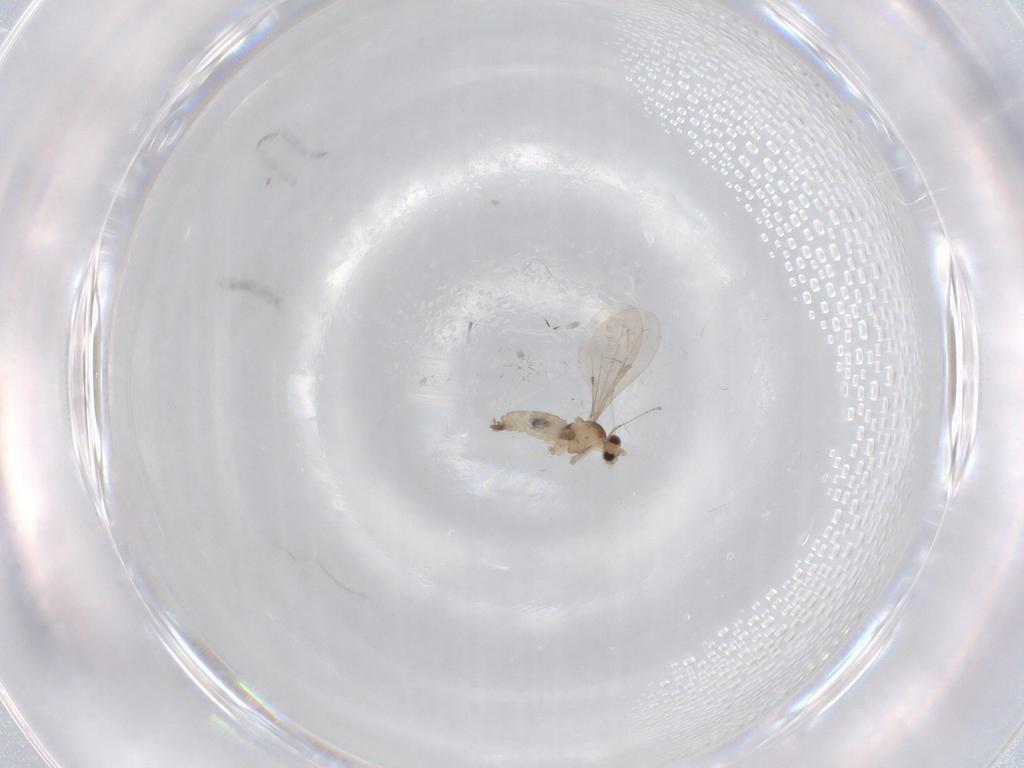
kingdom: Animalia
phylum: Arthropoda
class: Insecta
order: Diptera
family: Cecidomyiidae
